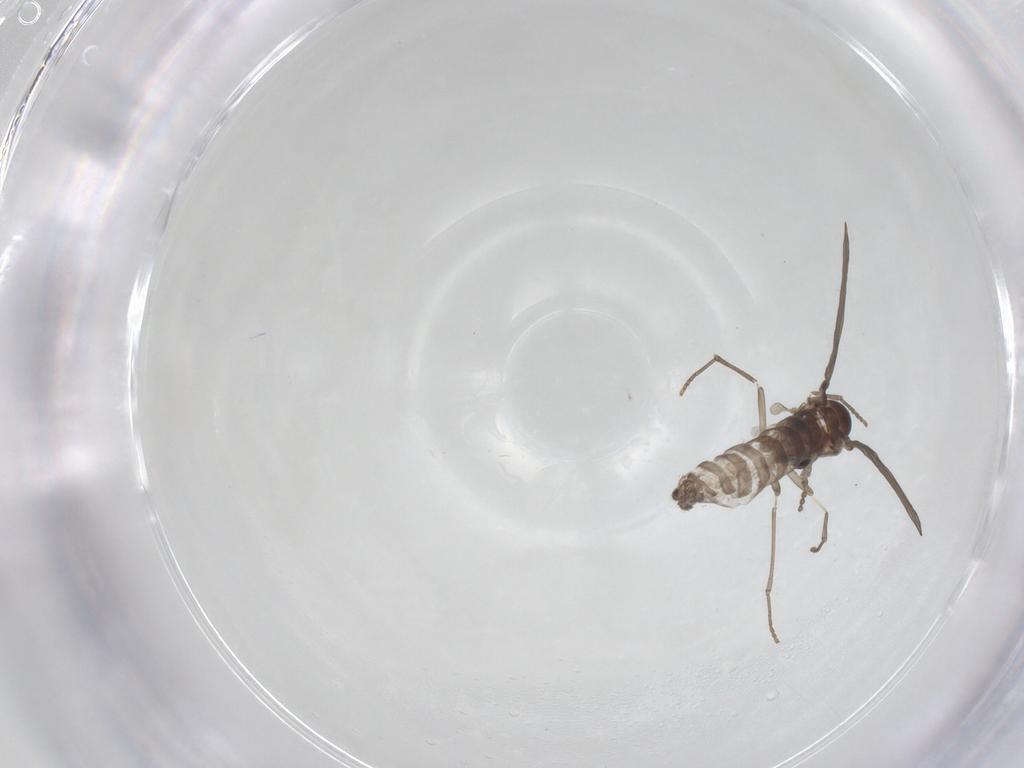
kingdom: Animalia
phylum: Arthropoda
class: Insecta
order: Diptera
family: Psychodidae
